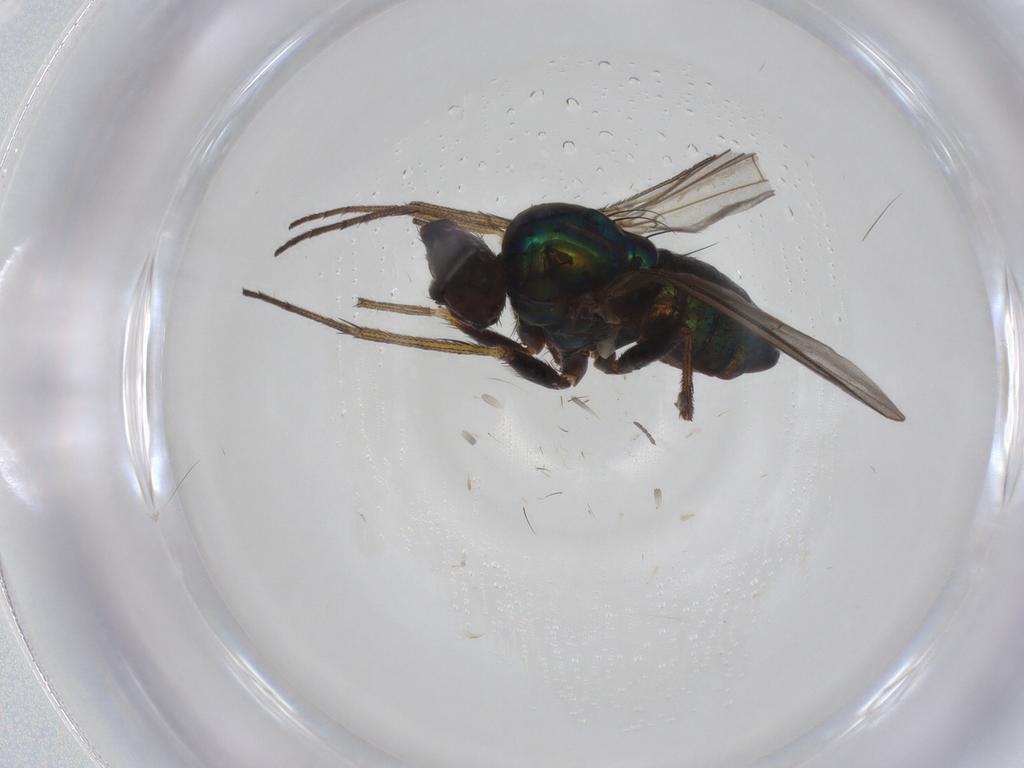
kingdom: Animalia
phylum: Arthropoda
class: Insecta
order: Diptera
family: Dolichopodidae
